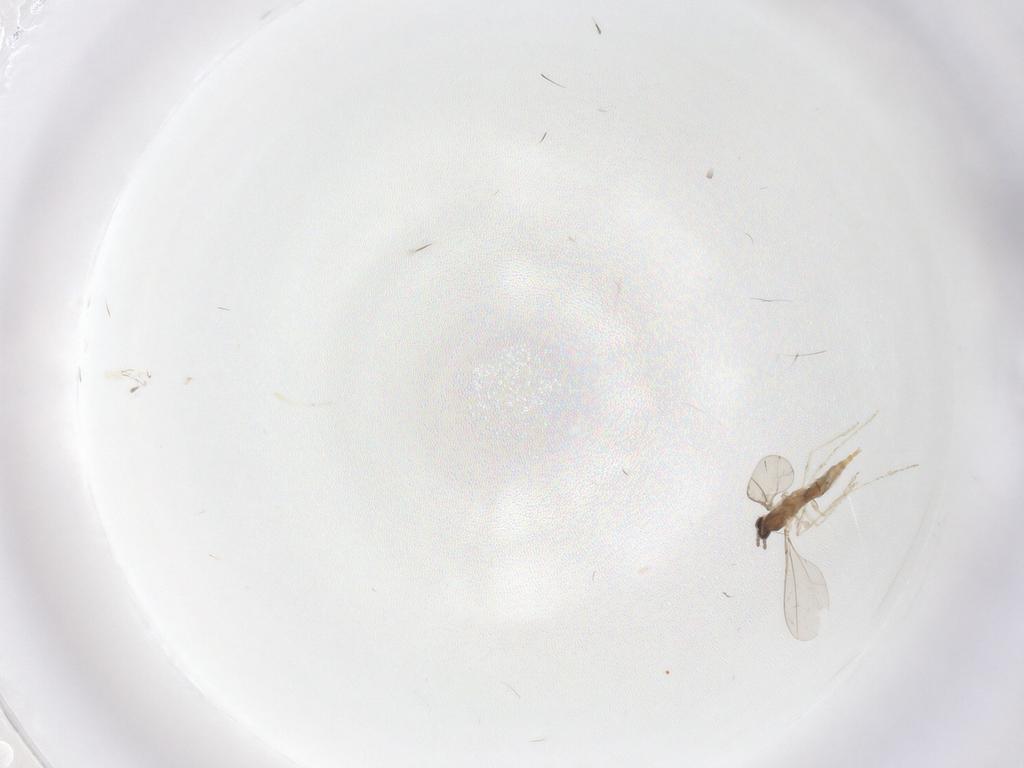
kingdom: Animalia
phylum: Arthropoda
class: Insecta
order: Diptera
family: Cecidomyiidae
